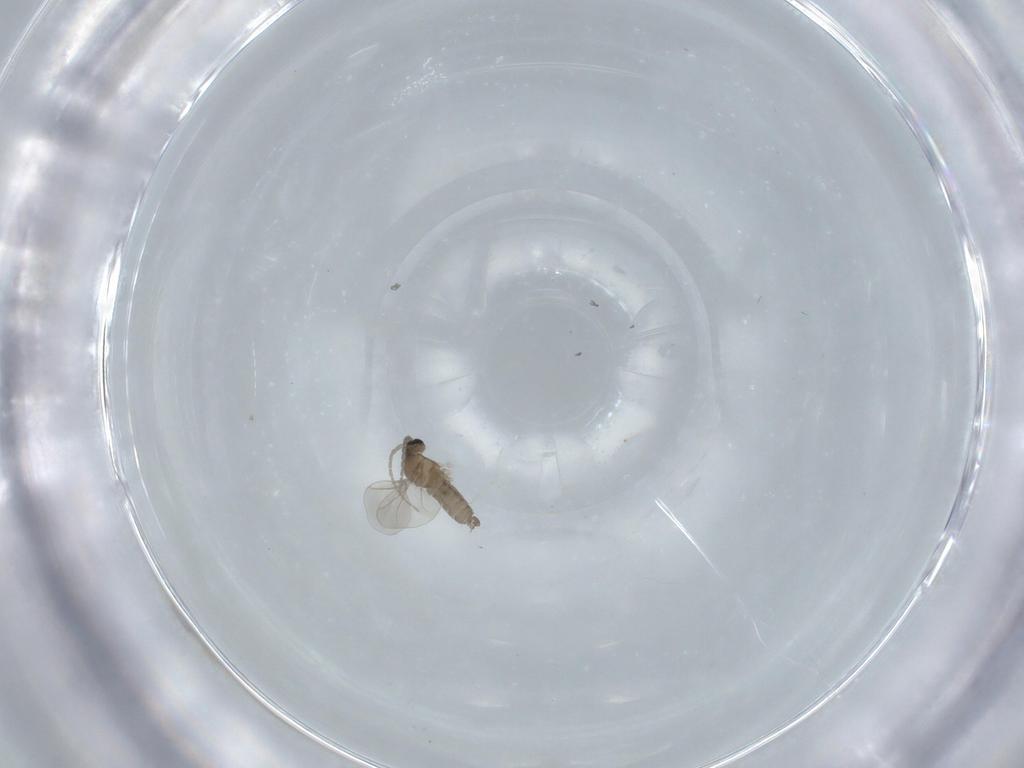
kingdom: Animalia
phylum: Arthropoda
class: Insecta
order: Diptera
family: Cecidomyiidae
